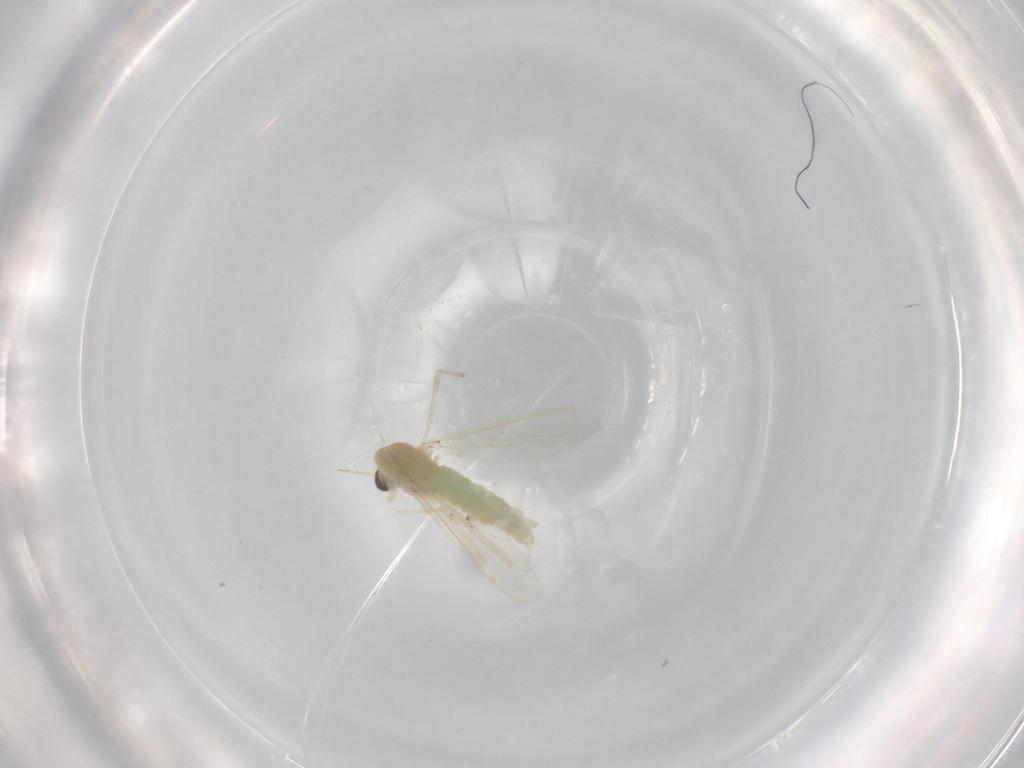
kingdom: Animalia
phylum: Arthropoda
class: Insecta
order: Diptera
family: Chironomidae
